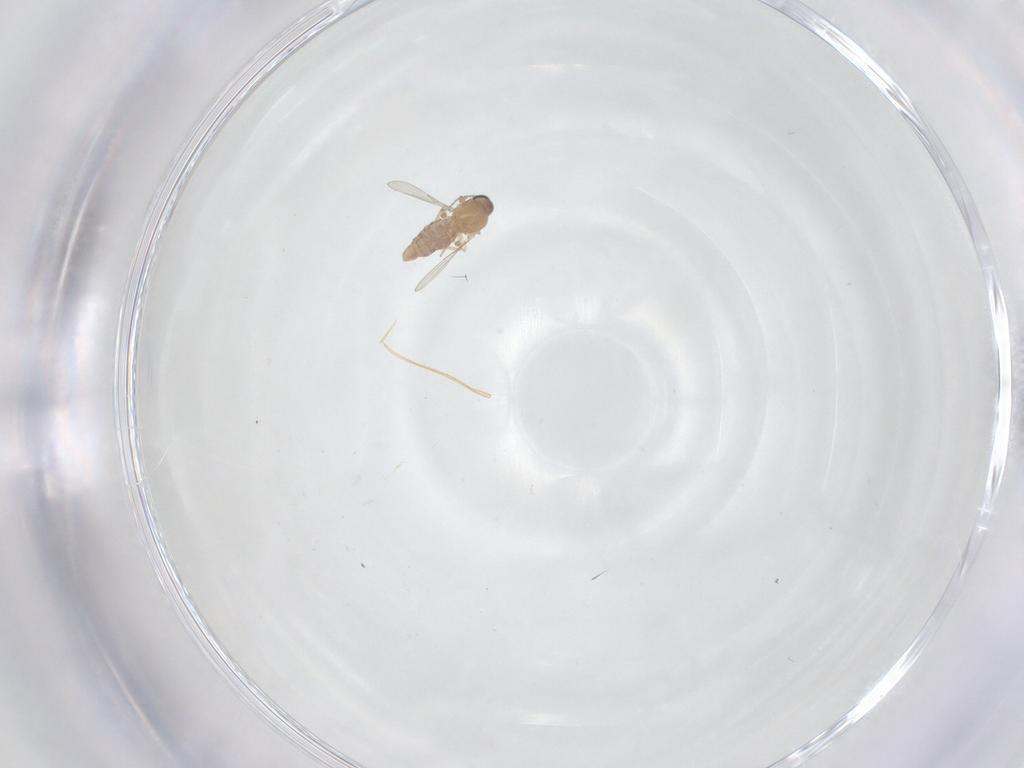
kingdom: Animalia
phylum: Arthropoda
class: Insecta
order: Diptera
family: Ceratopogonidae
